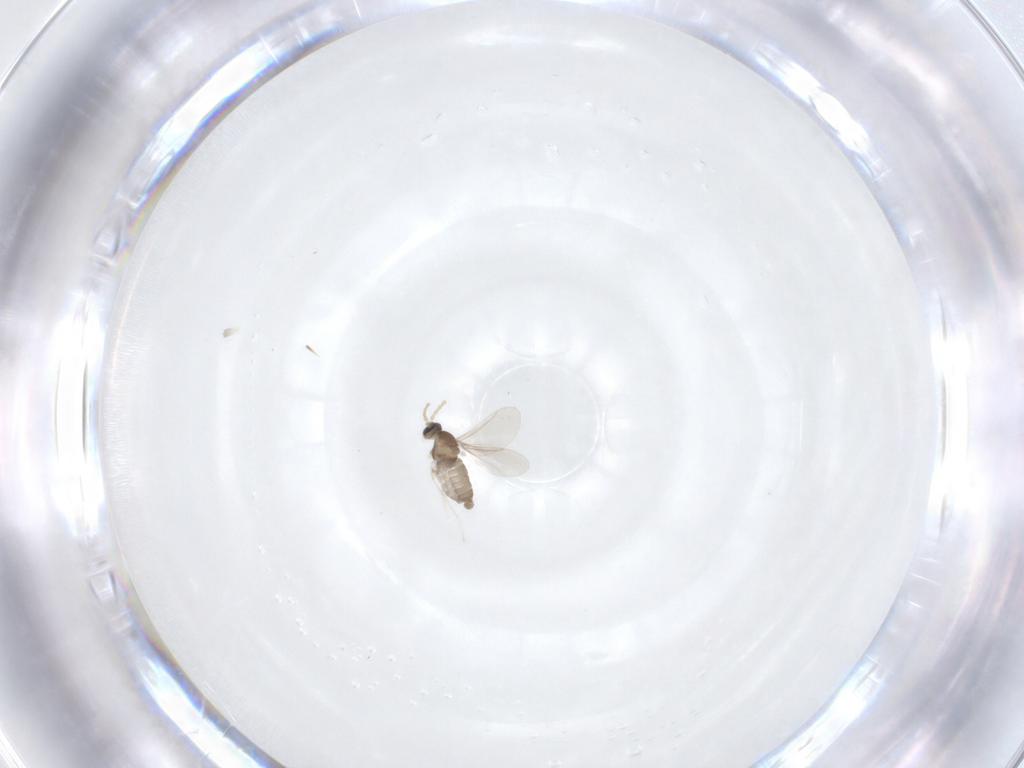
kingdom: Animalia
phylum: Arthropoda
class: Insecta
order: Diptera
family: Cecidomyiidae
